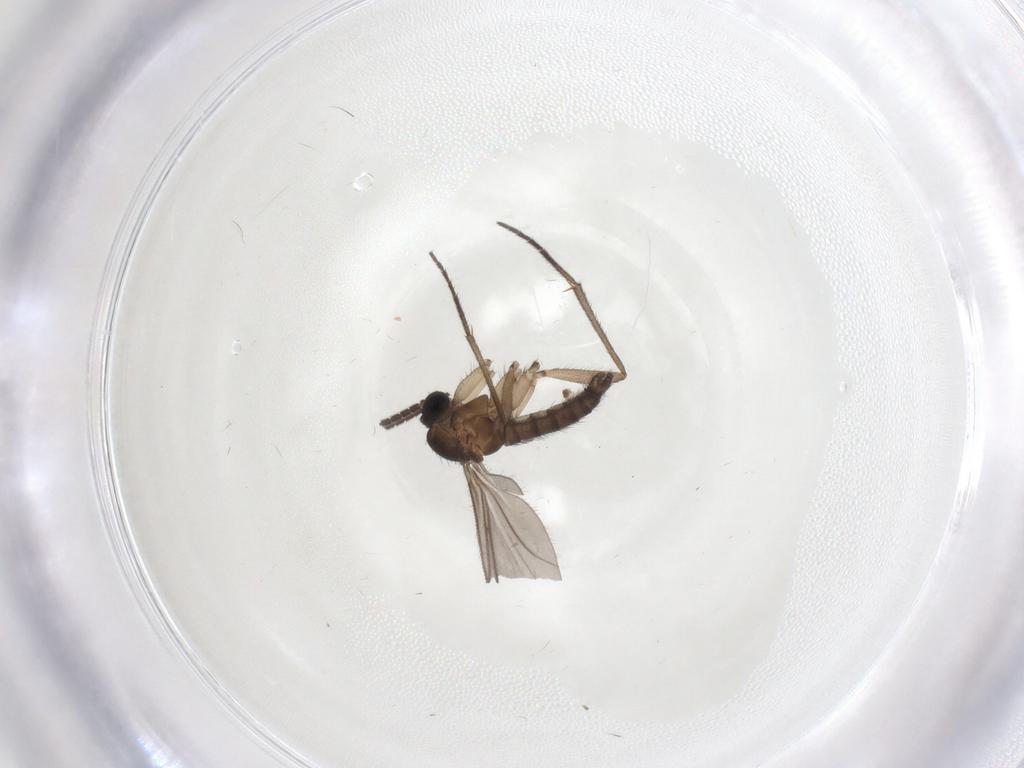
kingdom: Animalia
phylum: Arthropoda
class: Insecta
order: Diptera
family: Sciaridae
